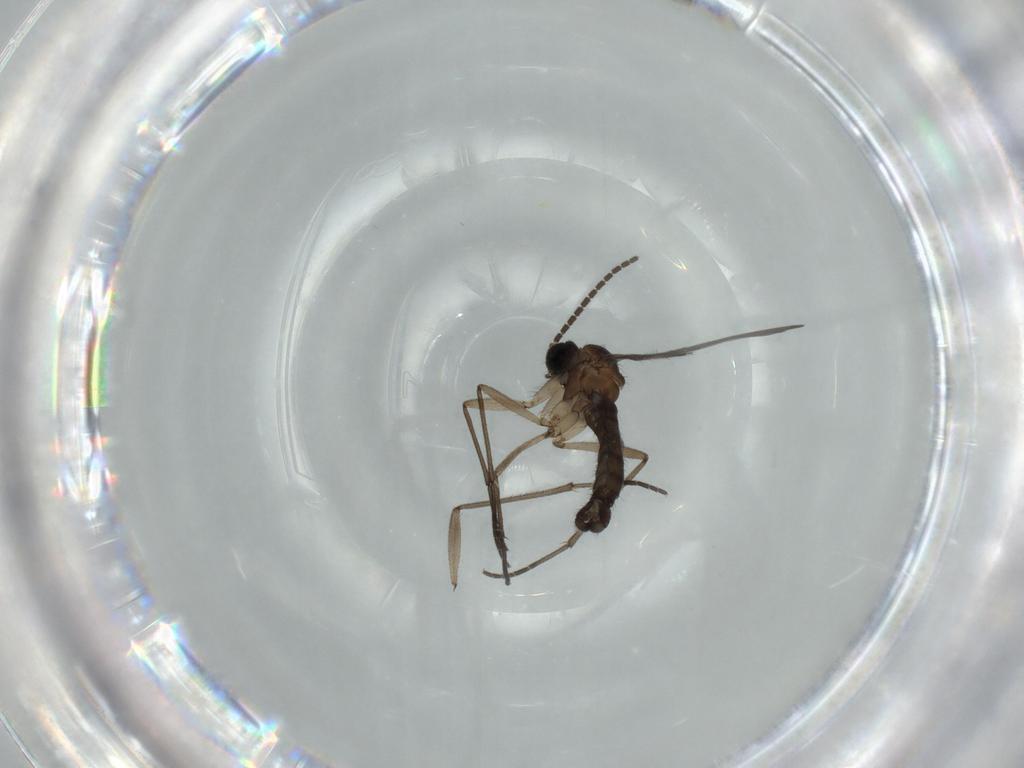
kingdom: Animalia
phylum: Arthropoda
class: Insecta
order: Diptera
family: Sciaridae
